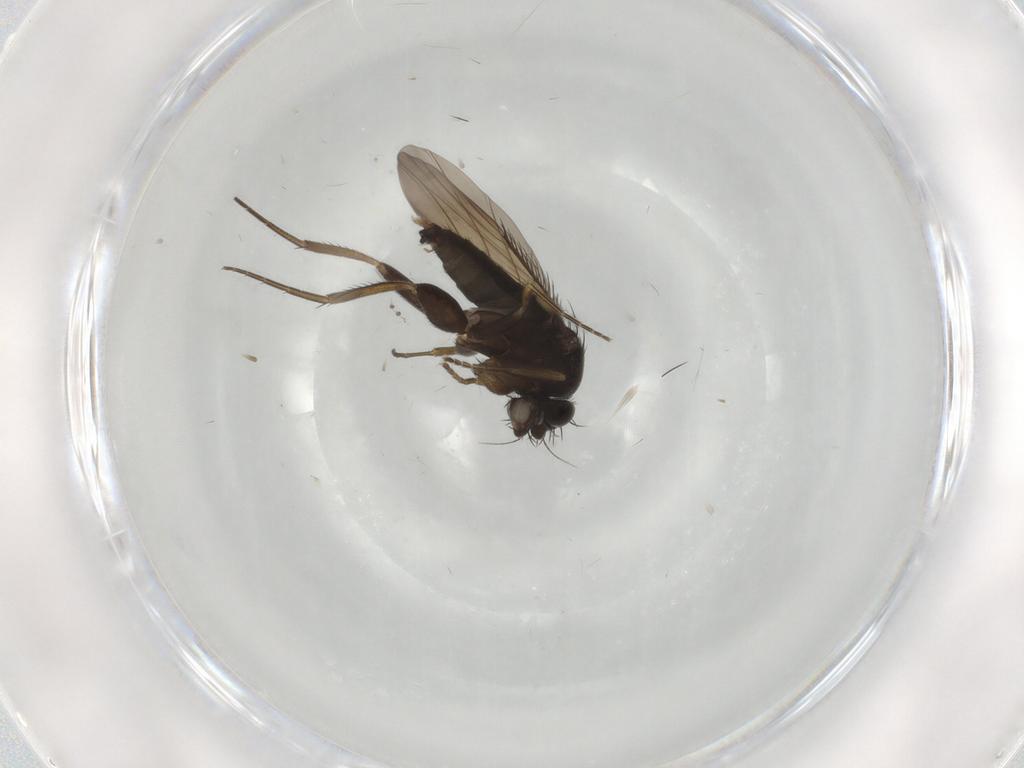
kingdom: Animalia
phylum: Arthropoda
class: Insecta
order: Diptera
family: Phoridae
